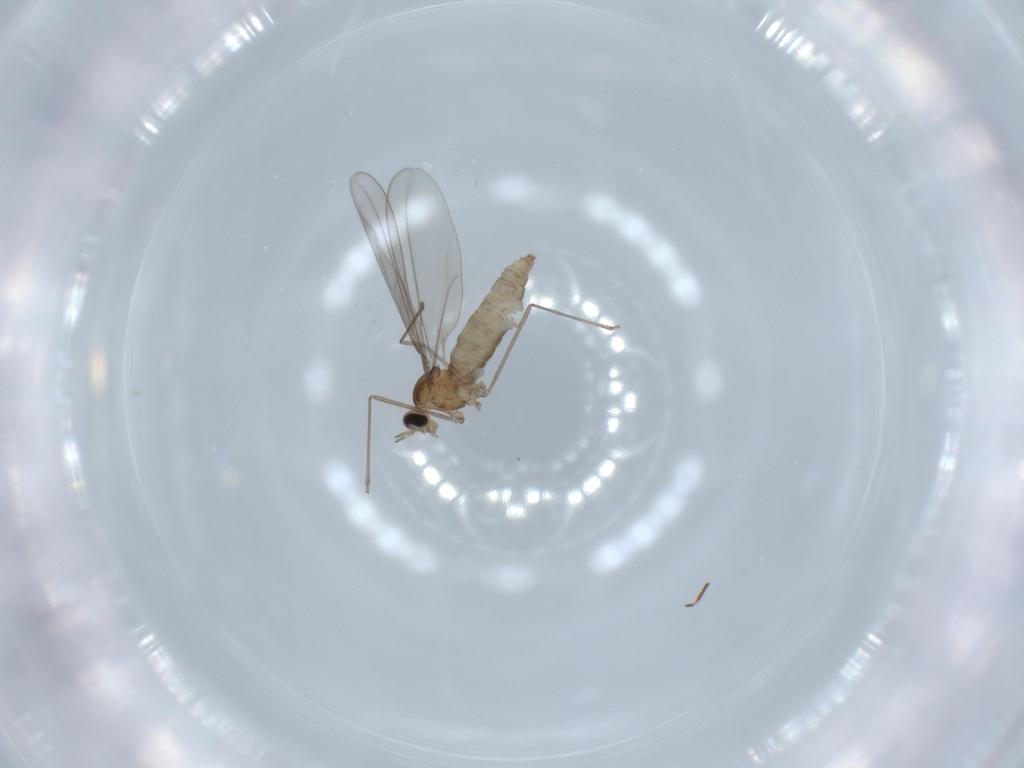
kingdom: Animalia
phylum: Arthropoda
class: Insecta
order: Diptera
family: Cecidomyiidae
